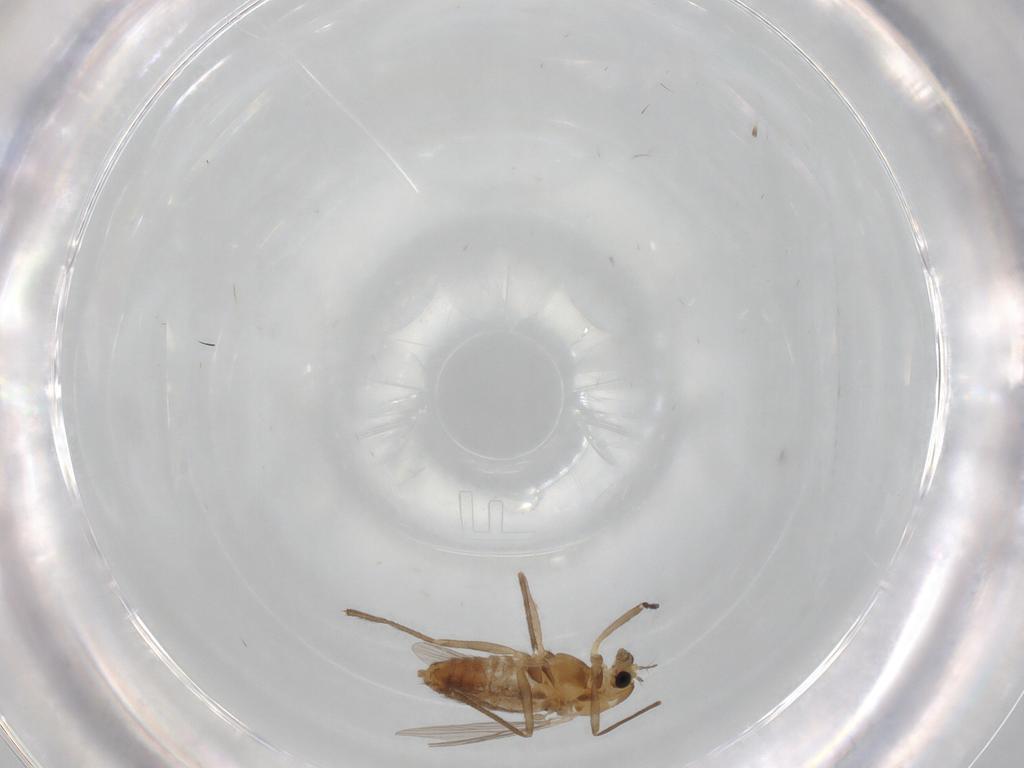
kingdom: Animalia
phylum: Arthropoda
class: Insecta
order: Diptera
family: Chironomidae
